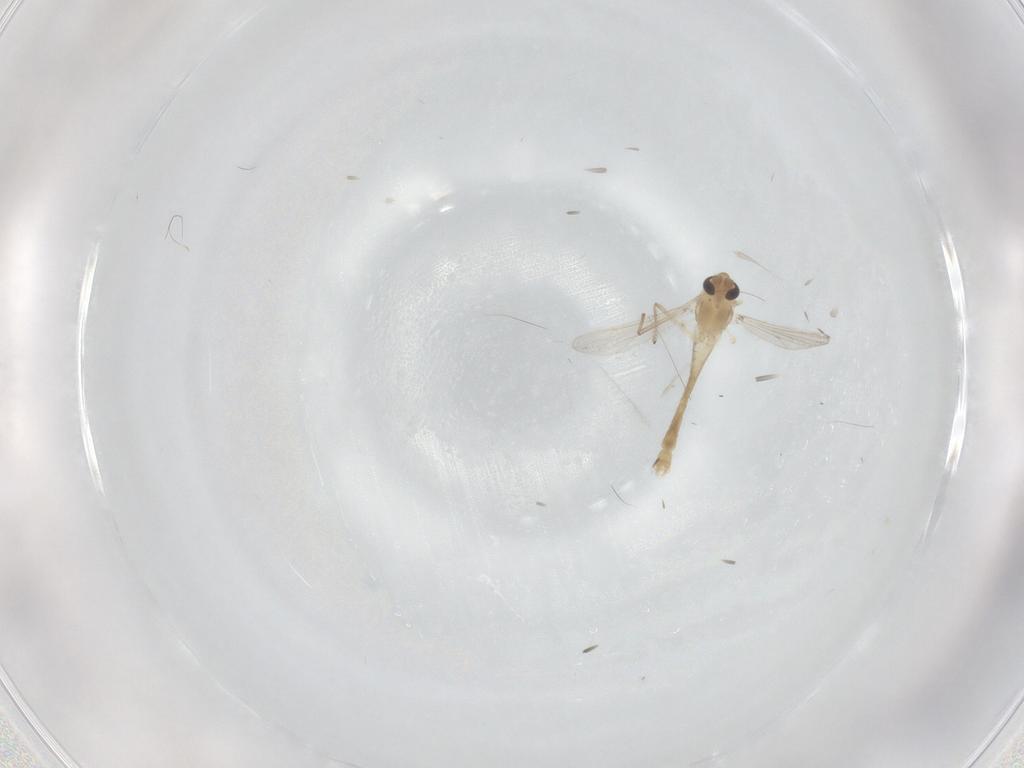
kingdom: Animalia
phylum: Arthropoda
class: Insecta
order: Diptera
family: Chironomidae
